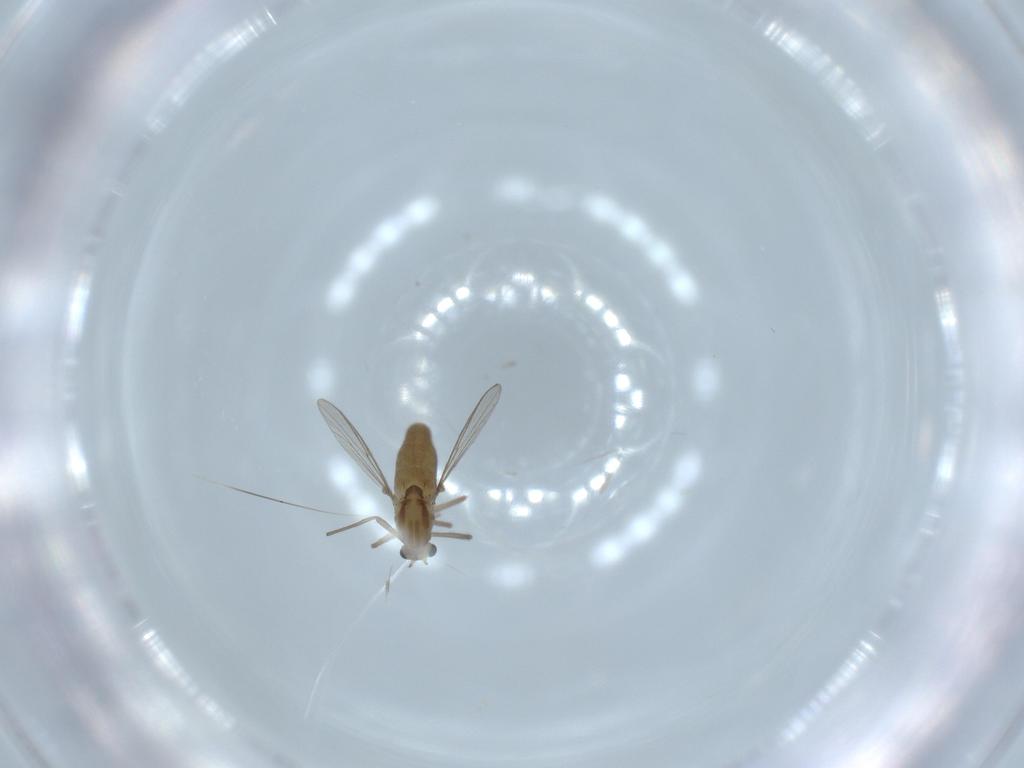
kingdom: Animalia
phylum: Arthropoda
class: Insecta
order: Diptera
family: Chironomidae
